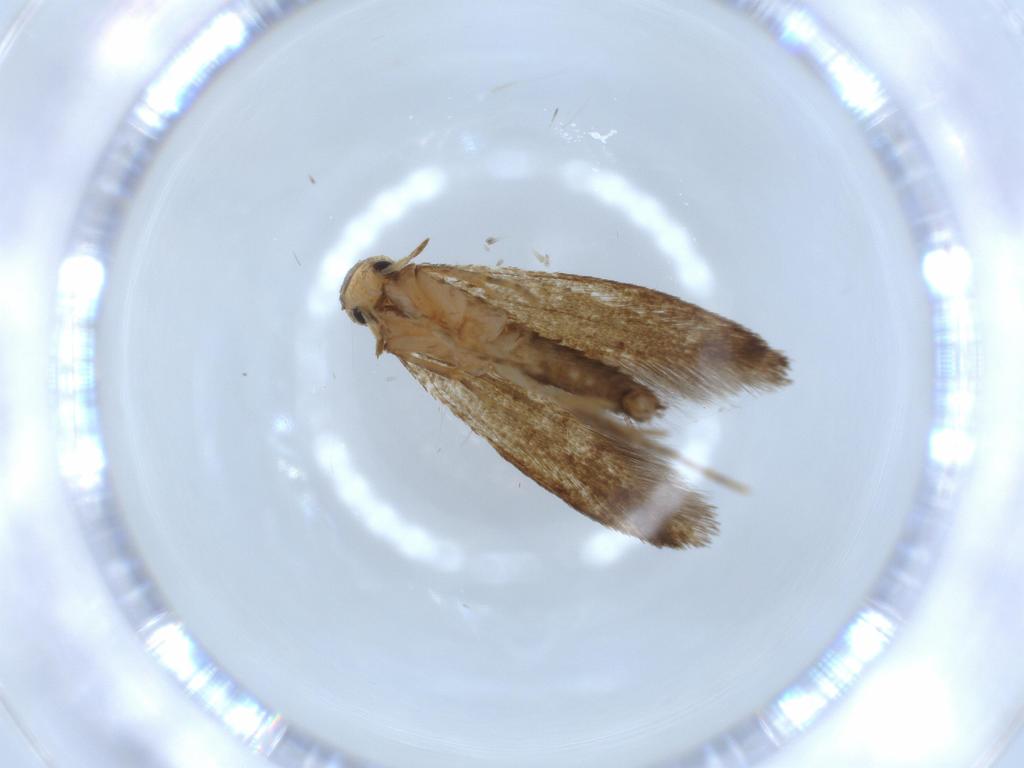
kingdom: Animalia
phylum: Arthropoda
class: Insecta
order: Lepidoptera
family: Tineidae
